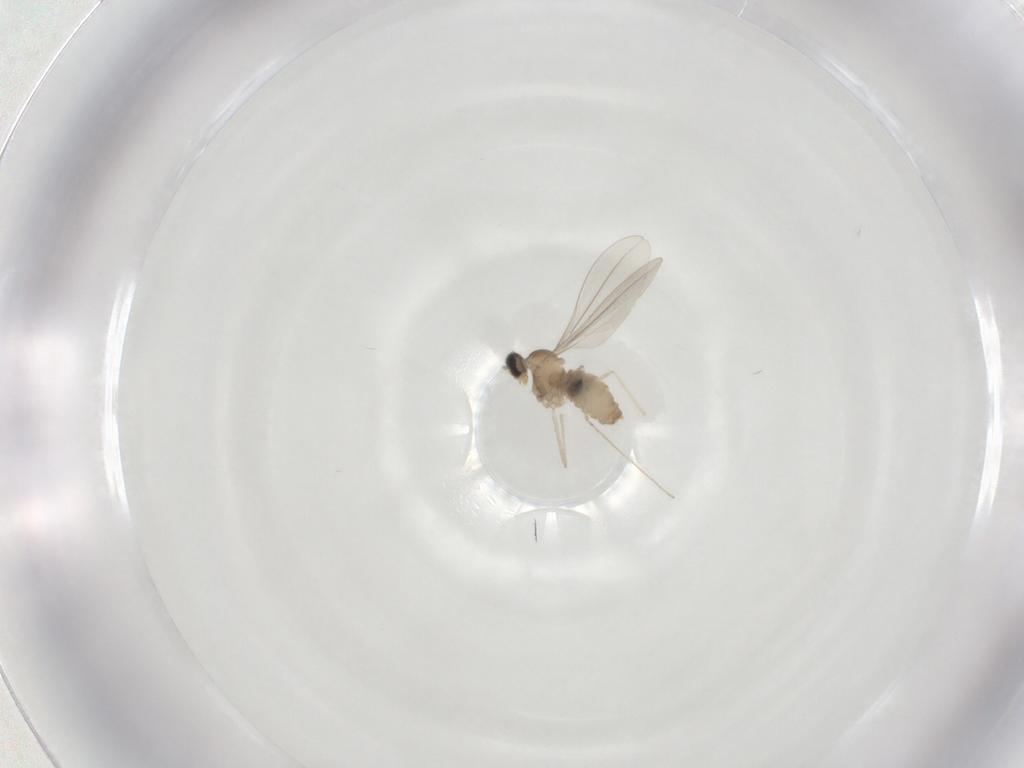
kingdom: Animalia
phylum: Arthropoda
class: Insecta
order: Diptera
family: Cecidomyiidae
